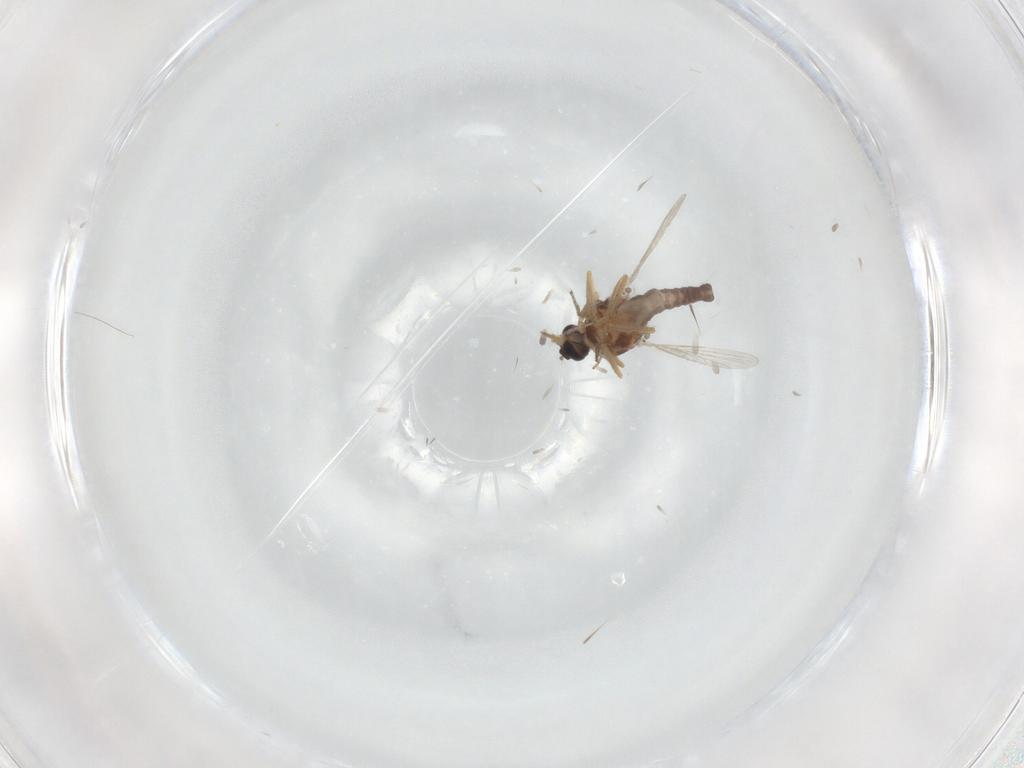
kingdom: Animalia
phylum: Arthropoda
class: Insecta
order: Diptera
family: Ceratopogonidae
